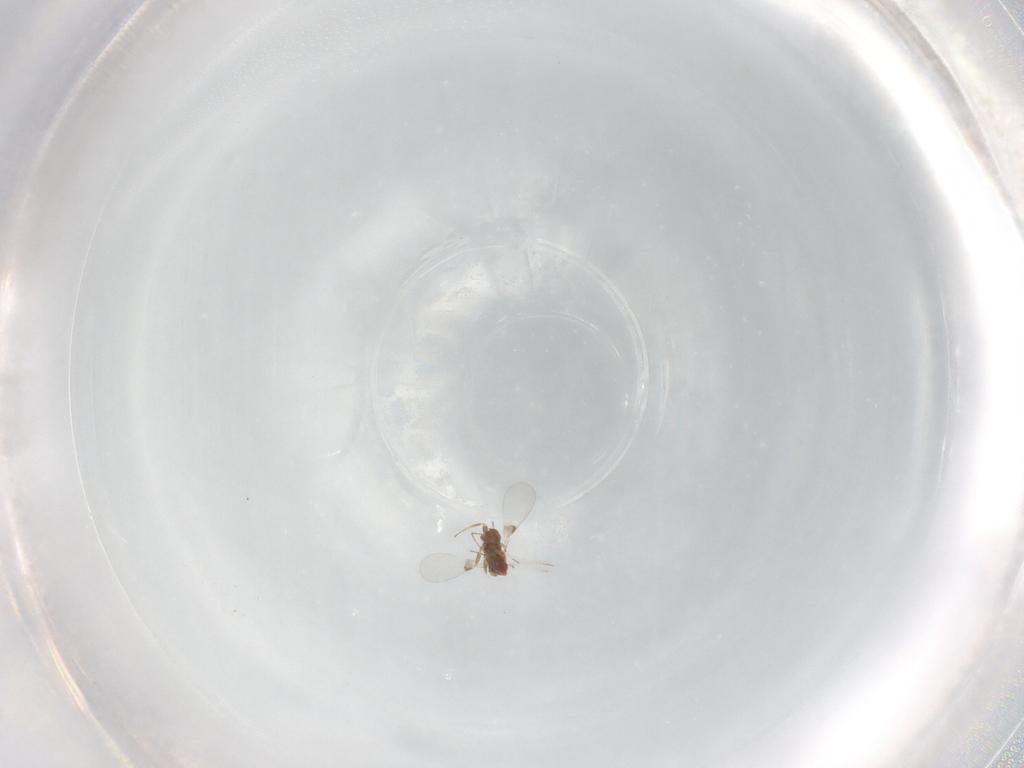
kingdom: Animalia
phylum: Arthropoda
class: Insecta
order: Hymenoptera
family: Trichogrammatidae
